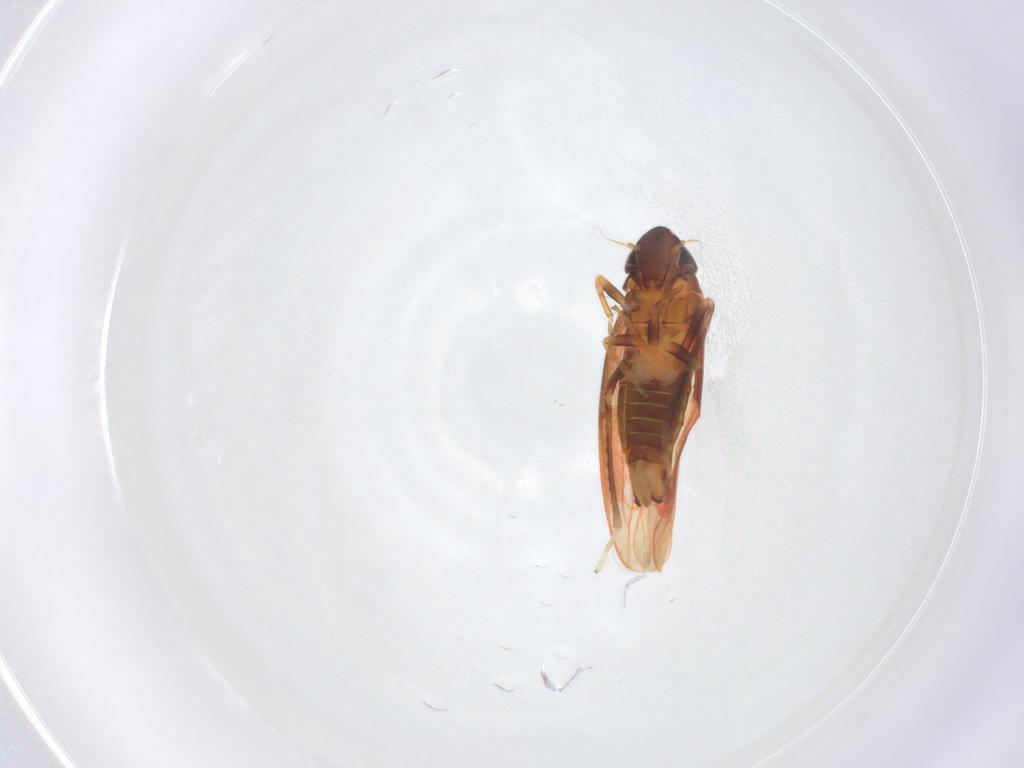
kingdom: Animalia
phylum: Arthropoda
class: Insecta
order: Hemiptera
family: Cicadellidae
